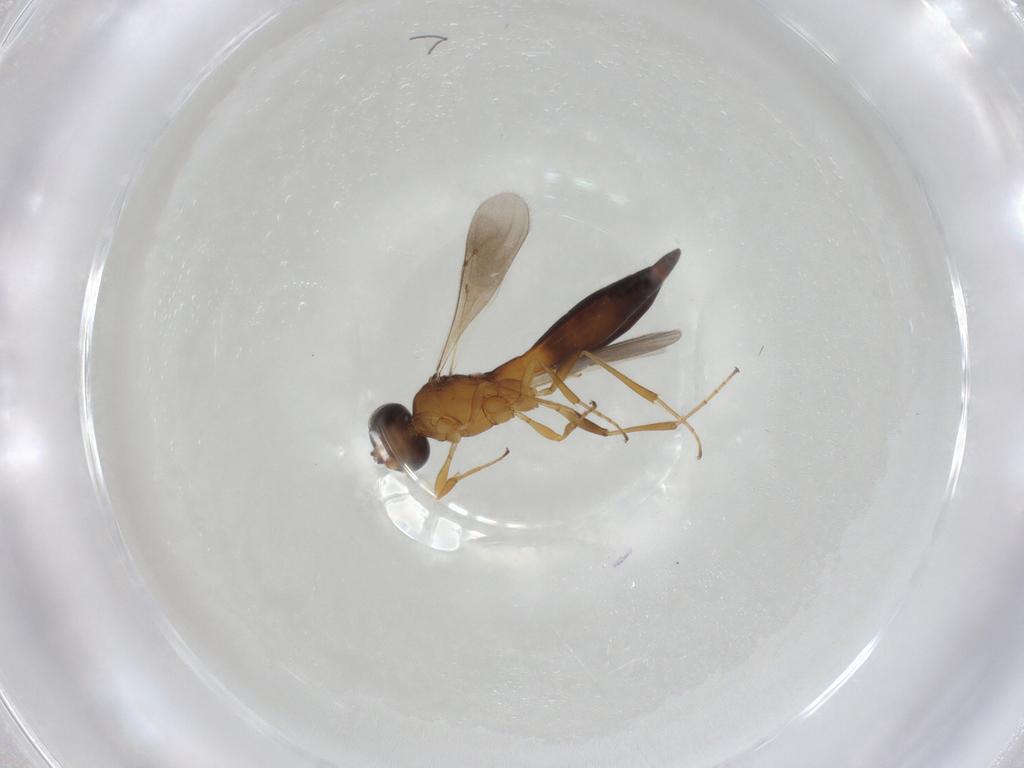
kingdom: Animalia
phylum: Arthropoda
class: Insecta
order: Hymenoptera
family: Scelionidae
